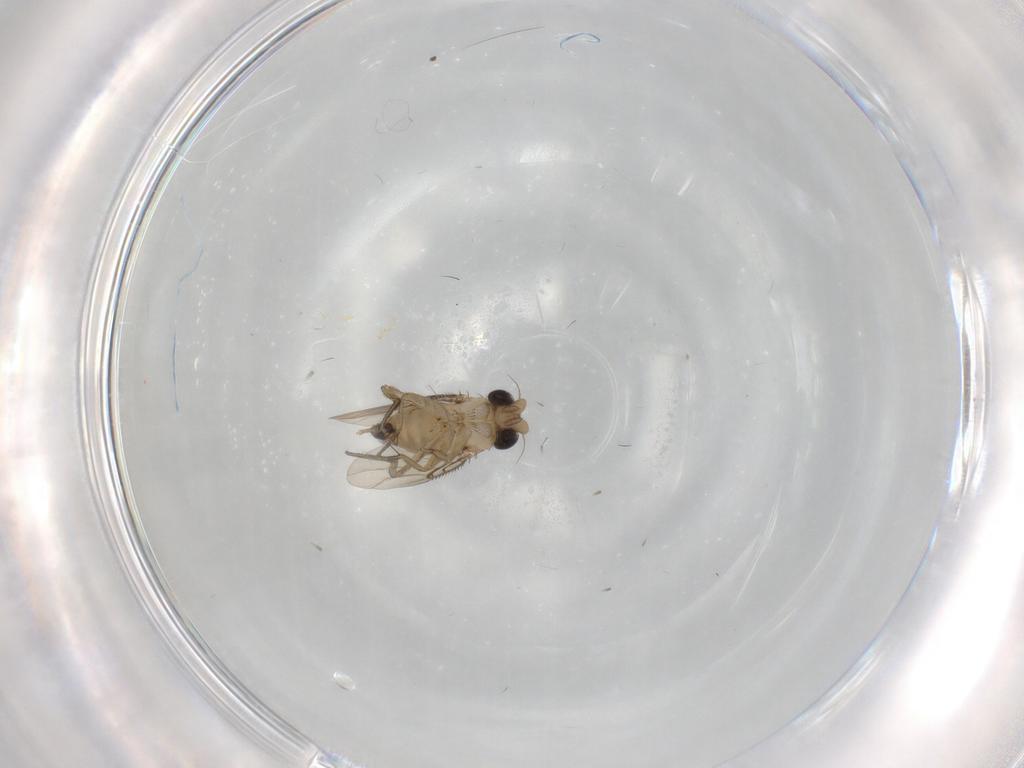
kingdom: Animalia
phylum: Arthropoda
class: Insecta
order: Diptera
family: Phoridae
